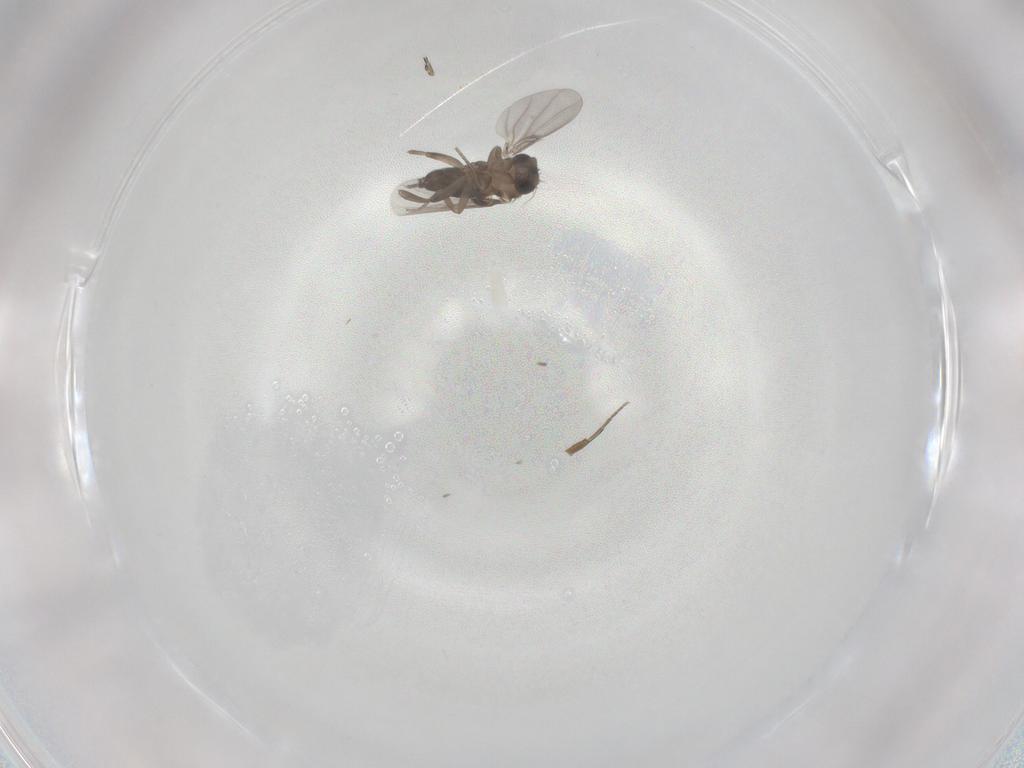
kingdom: Animalia
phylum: Arthropoda
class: Insecta
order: Diptera
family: Phoridae
